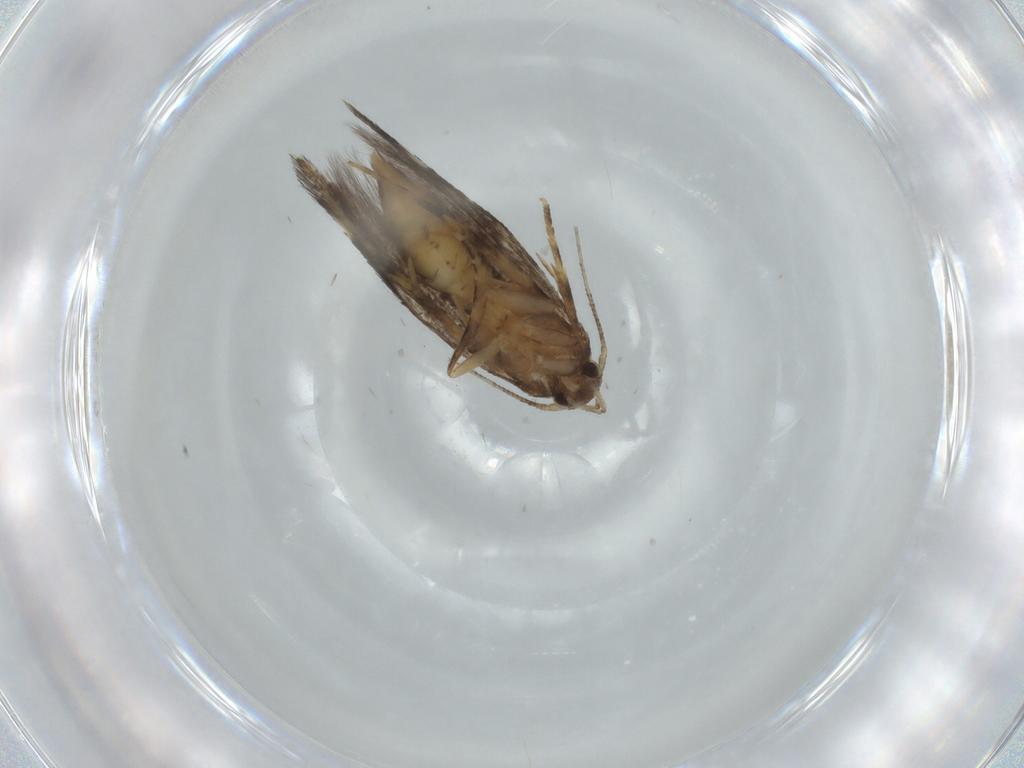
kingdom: Animalia
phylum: Arthropoda
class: Insecta
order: Lepidoptera
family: Elachistidae
